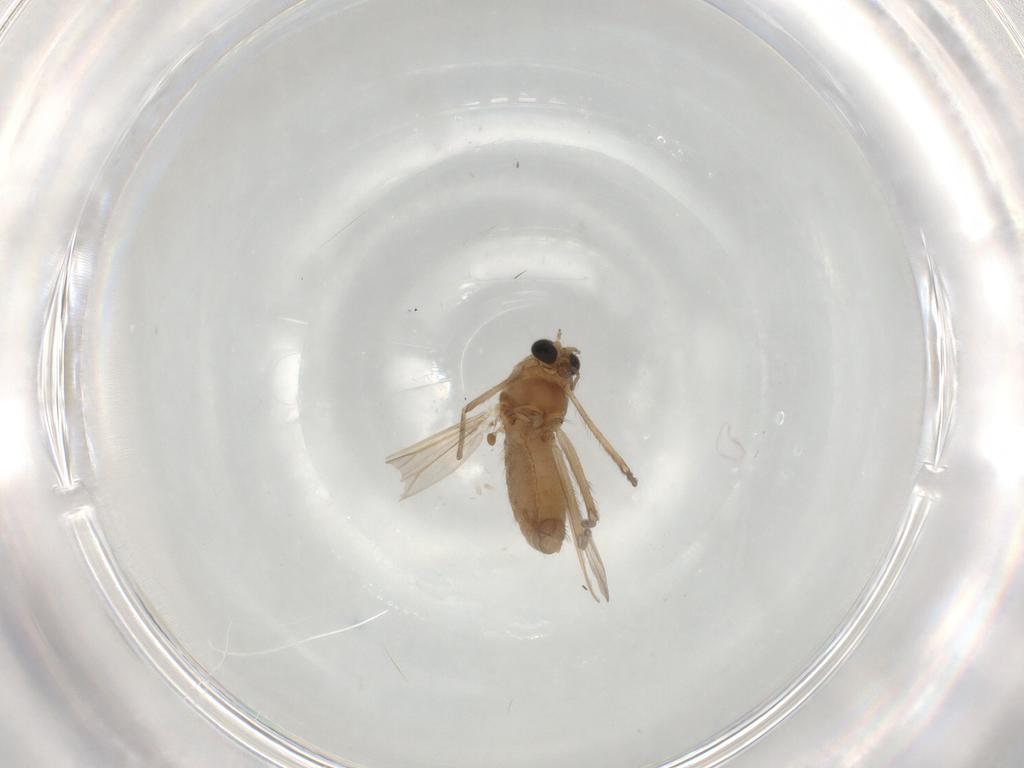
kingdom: Animalia
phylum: Arthropoda
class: Insecta
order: Diptera
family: Chironomidae
